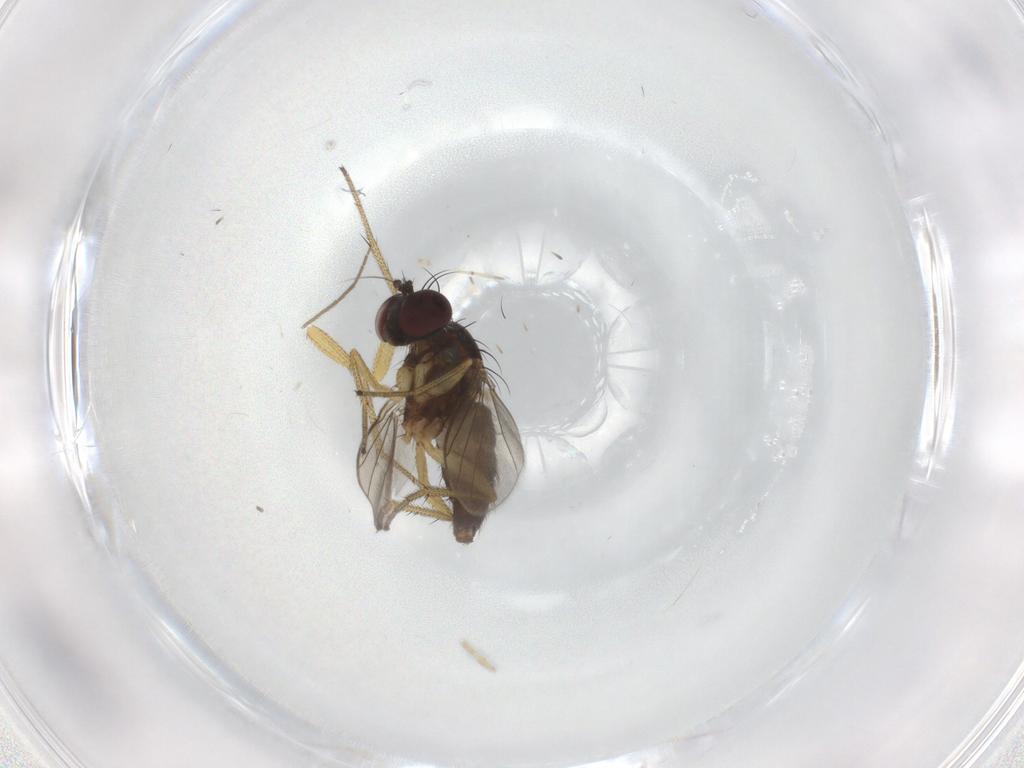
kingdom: Animalia
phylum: Arthropoda
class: Insecta
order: Diptera
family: Chironomidae
